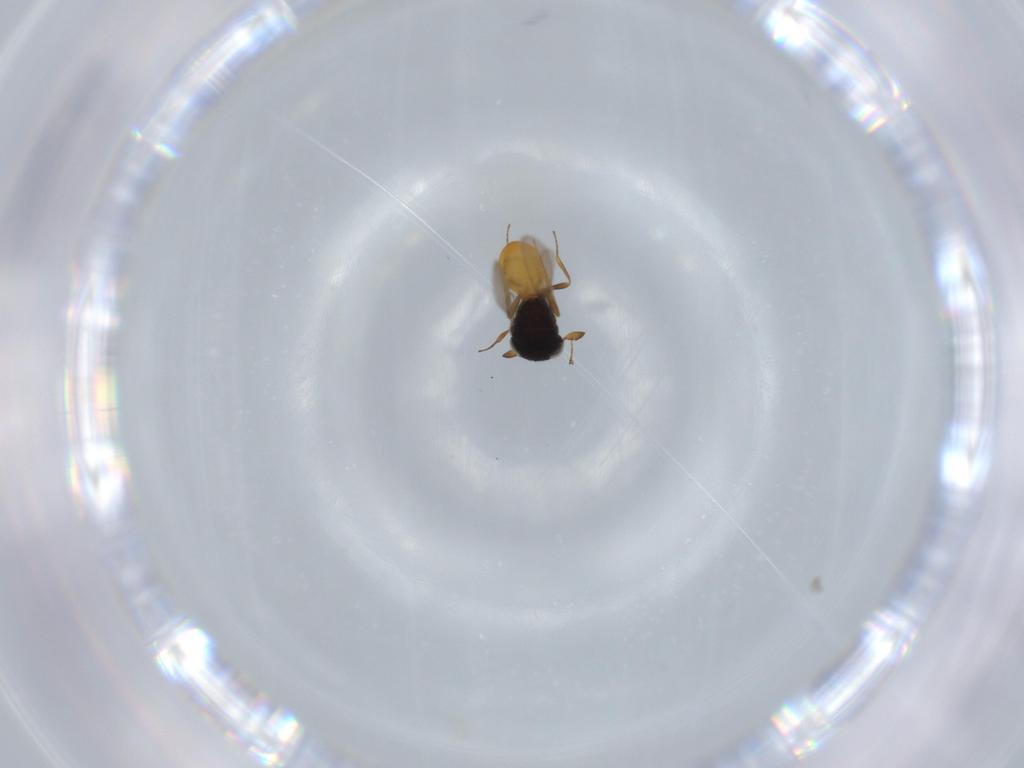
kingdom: Animalia
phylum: Arthropoda
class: Insecta
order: Hymenoptera
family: Scelionidae
